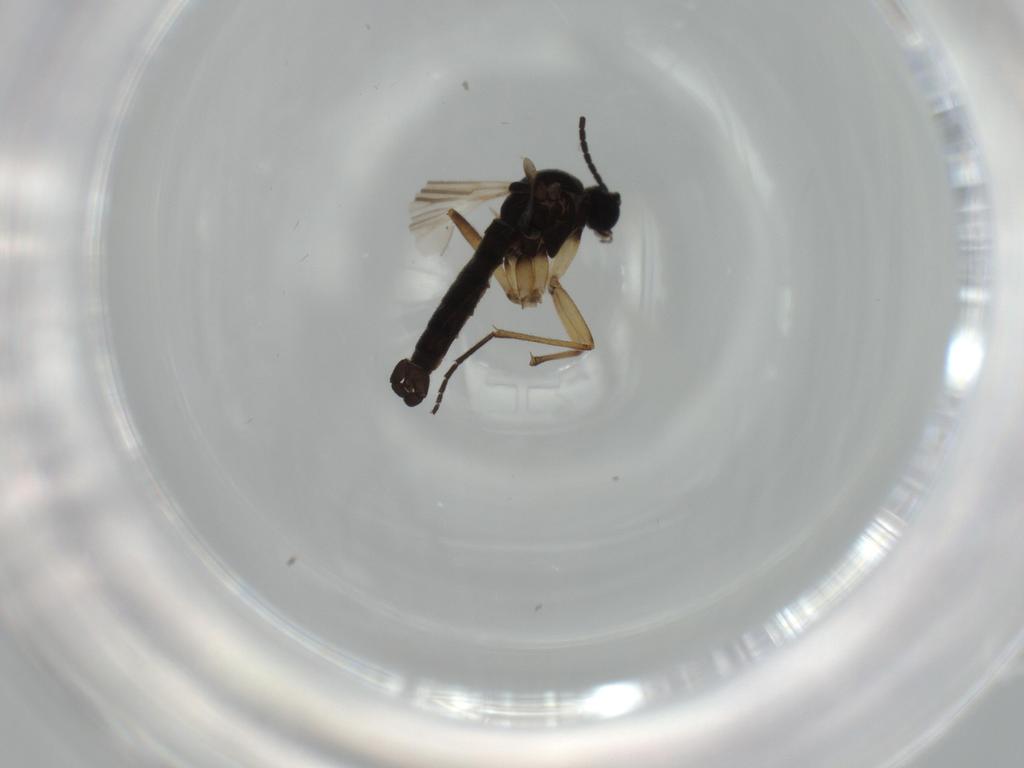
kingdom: Animalia
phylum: Arthropoda
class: Insecta
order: Diptera
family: Sciaridae
